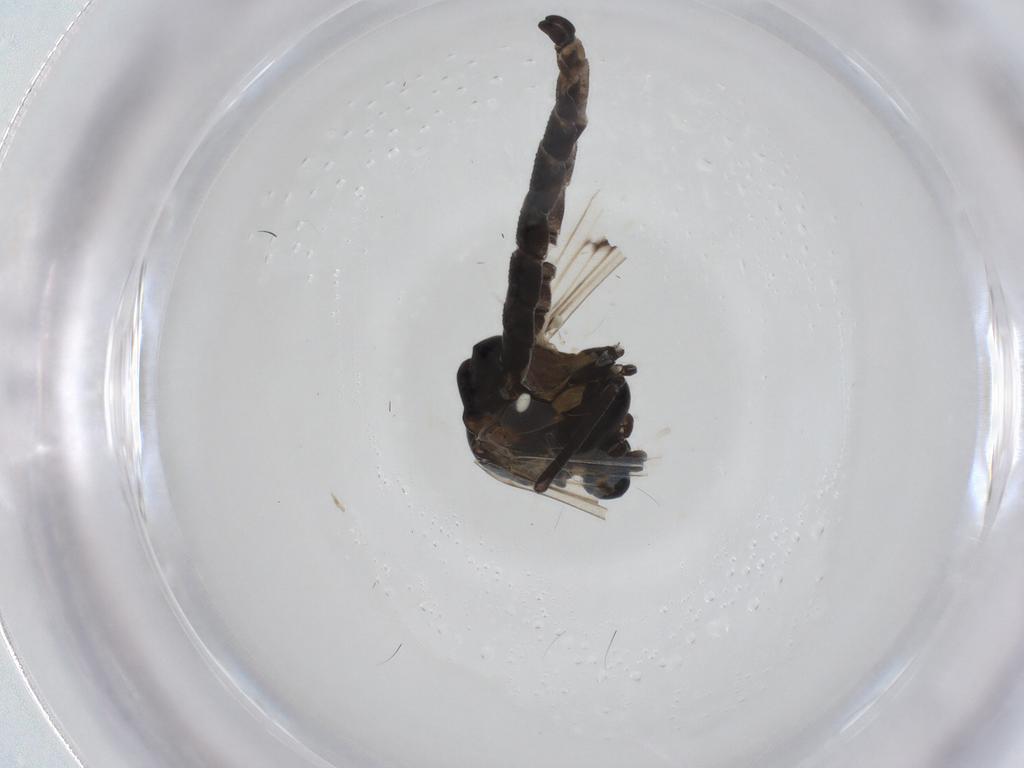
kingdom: Animalia
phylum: Arthropoda
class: Insecta
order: Diptera
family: Chironomidae
